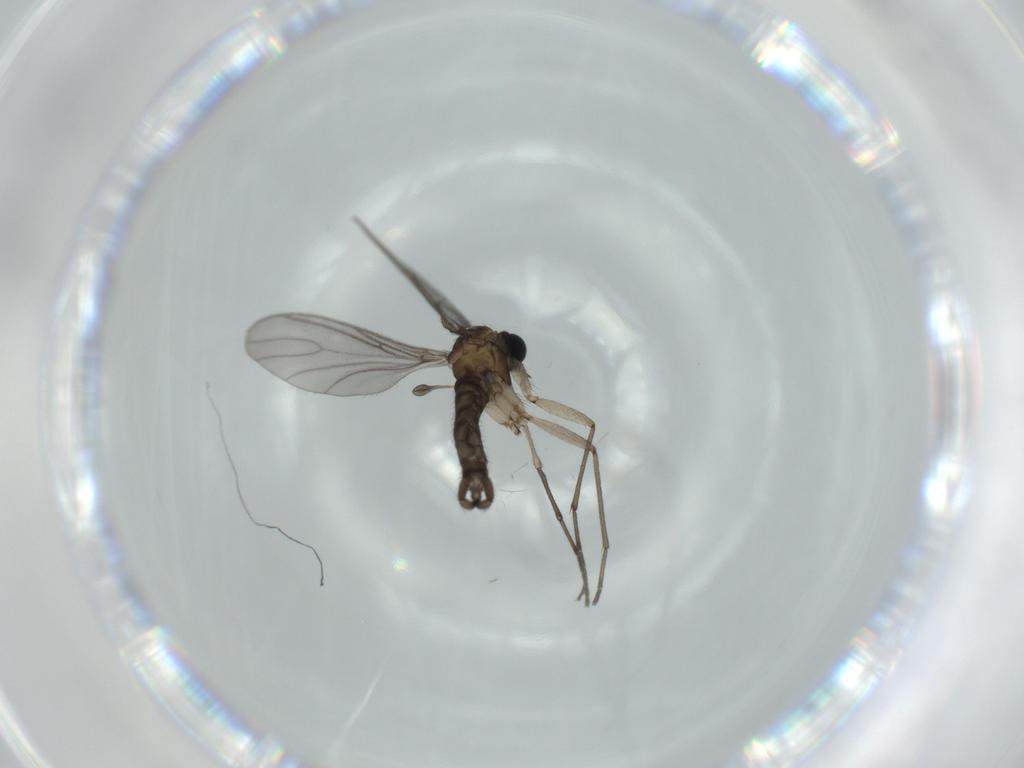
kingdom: Animalia
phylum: Arthropoda
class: Insecta
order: Diptera
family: Sciaridae
